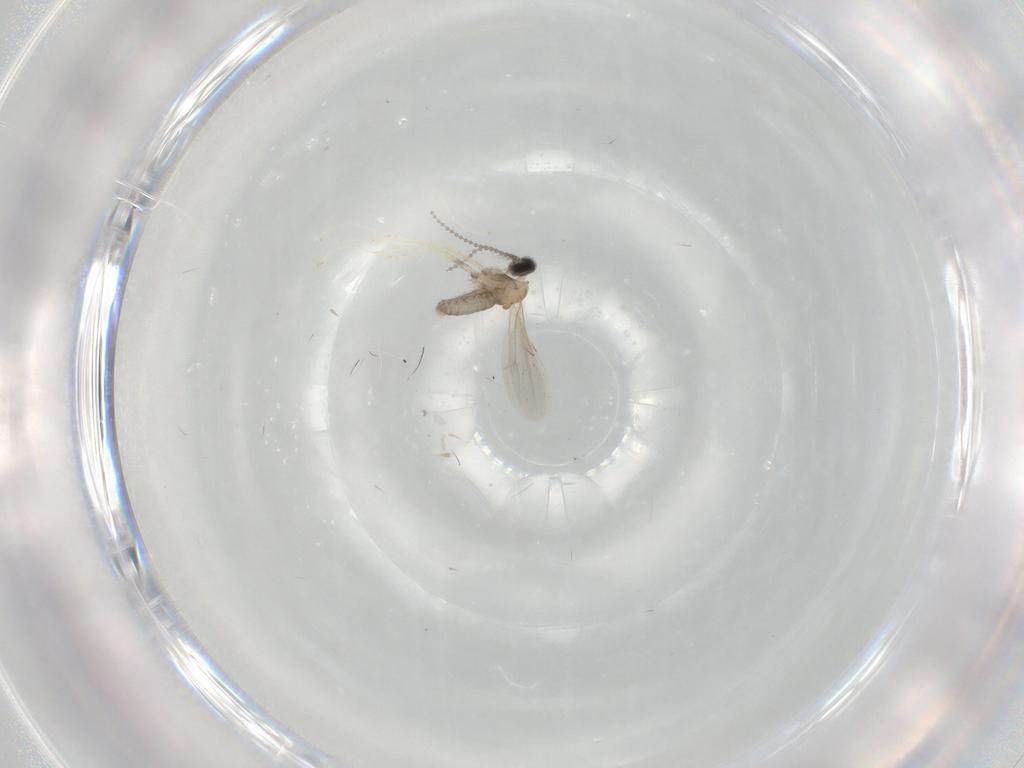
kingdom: Animalia
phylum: Arthropoda
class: Insecta
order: Diptera
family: Cecidomyiidae
